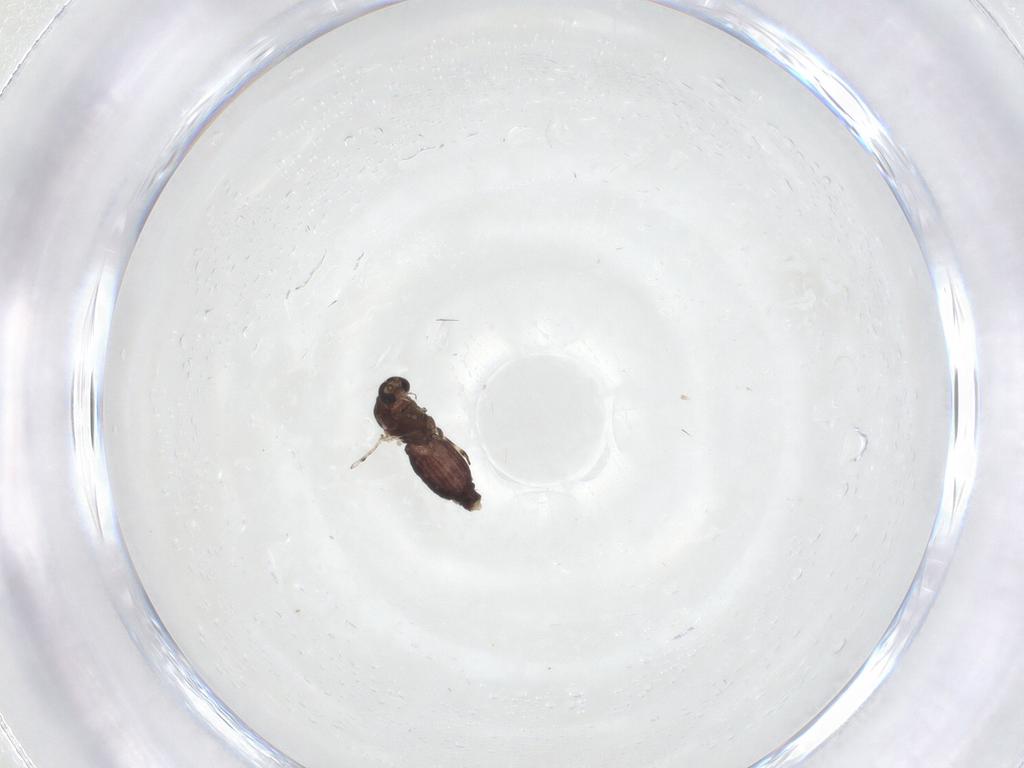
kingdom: Animalia
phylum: Arthropoda
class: Insecta
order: Diptera
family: Ceratopogonidae
